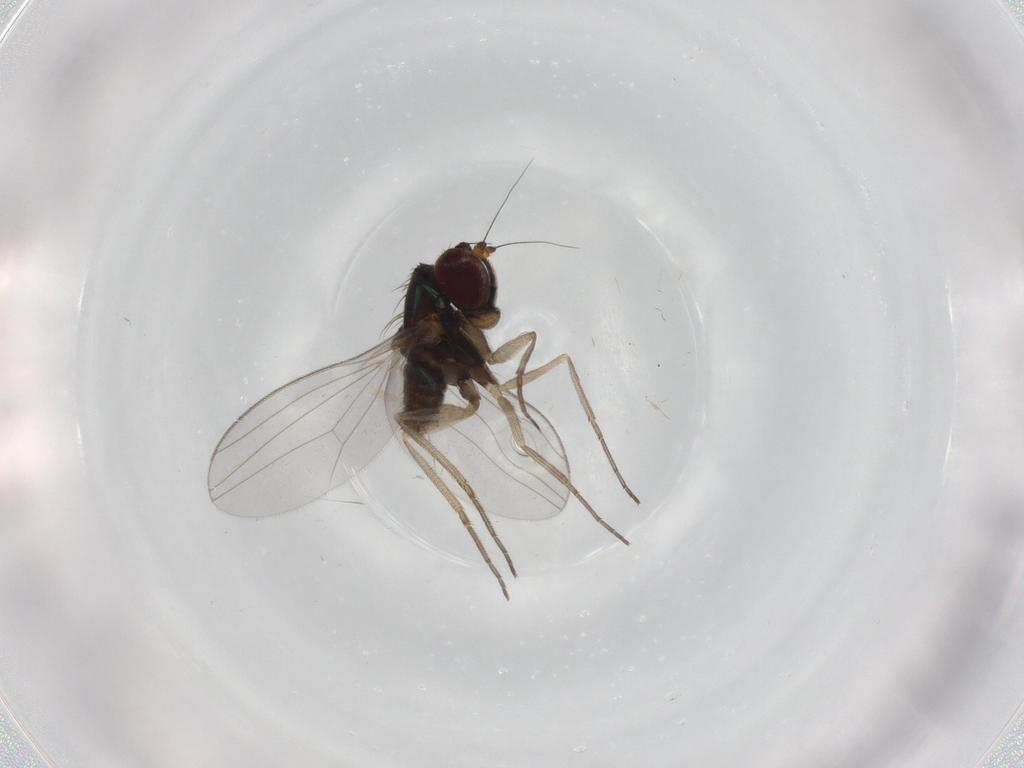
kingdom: Animalia
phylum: Arthropoda
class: Insecta
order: Diptera
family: Dolichopodidae
